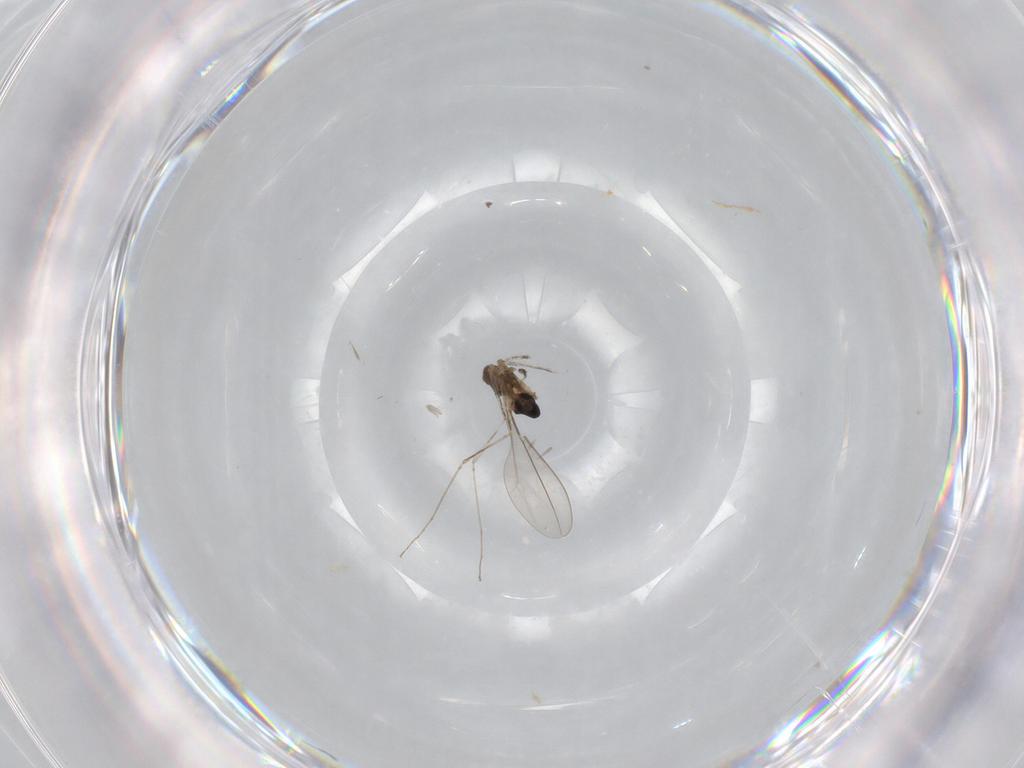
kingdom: Animalia
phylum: Arthropoda
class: Insecta
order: Diptera
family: Cecidomyiidae
